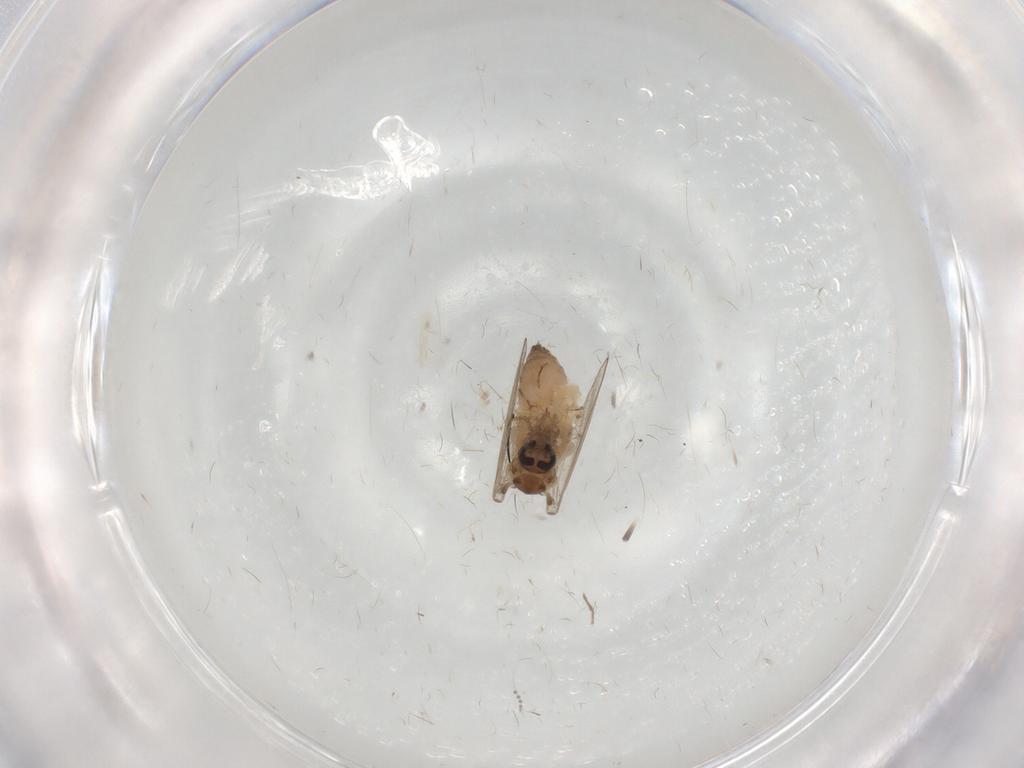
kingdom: Animalia
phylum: Arthropoda
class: Insecta
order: Diptera
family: Psychodidae
